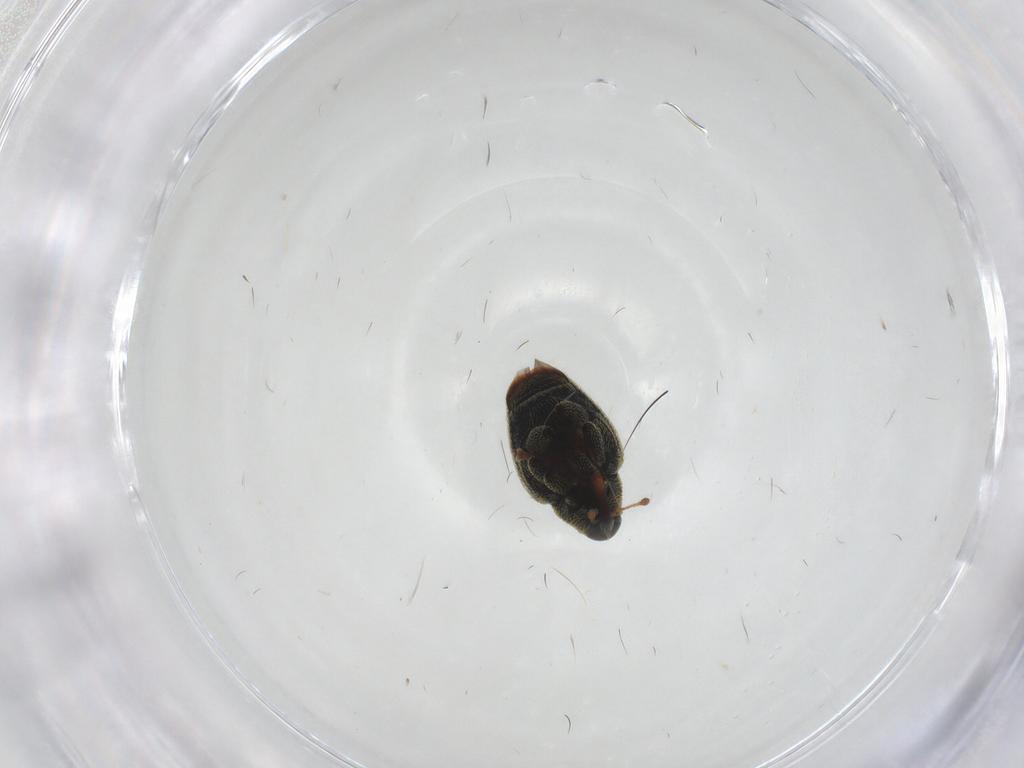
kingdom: Animalia
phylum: Arthropoda
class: Insecta
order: Coleoptera
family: Curculionidae
